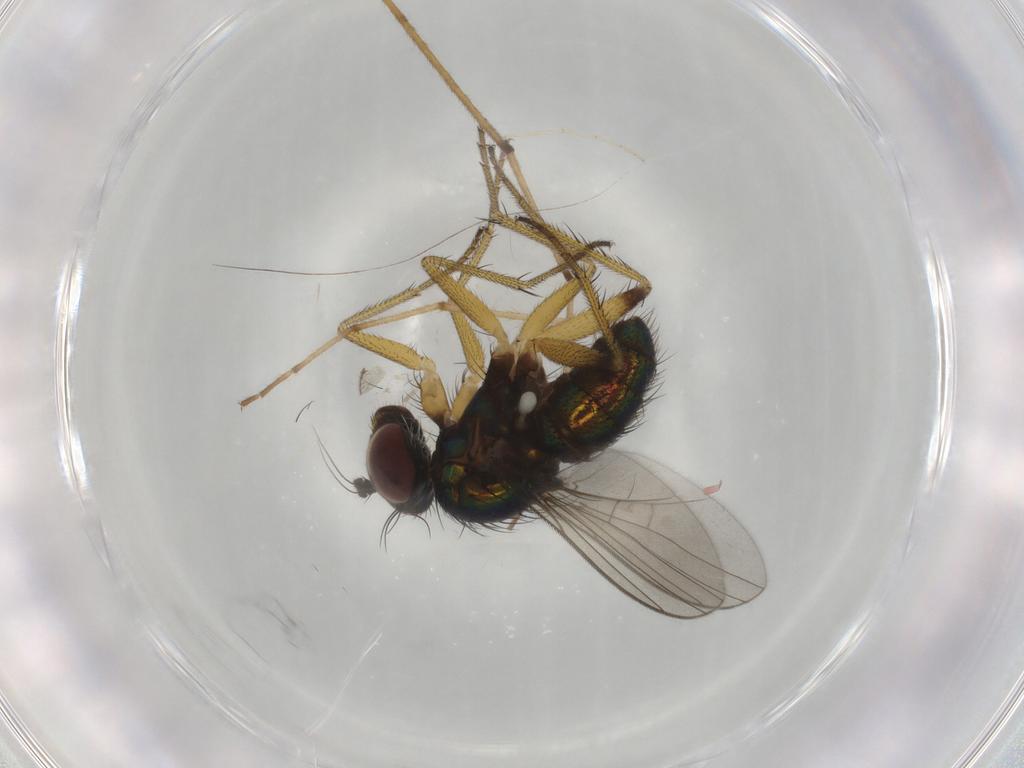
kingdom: Animalia
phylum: Arthropoda
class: Insecta
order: Diptera
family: Dolichopodidae
